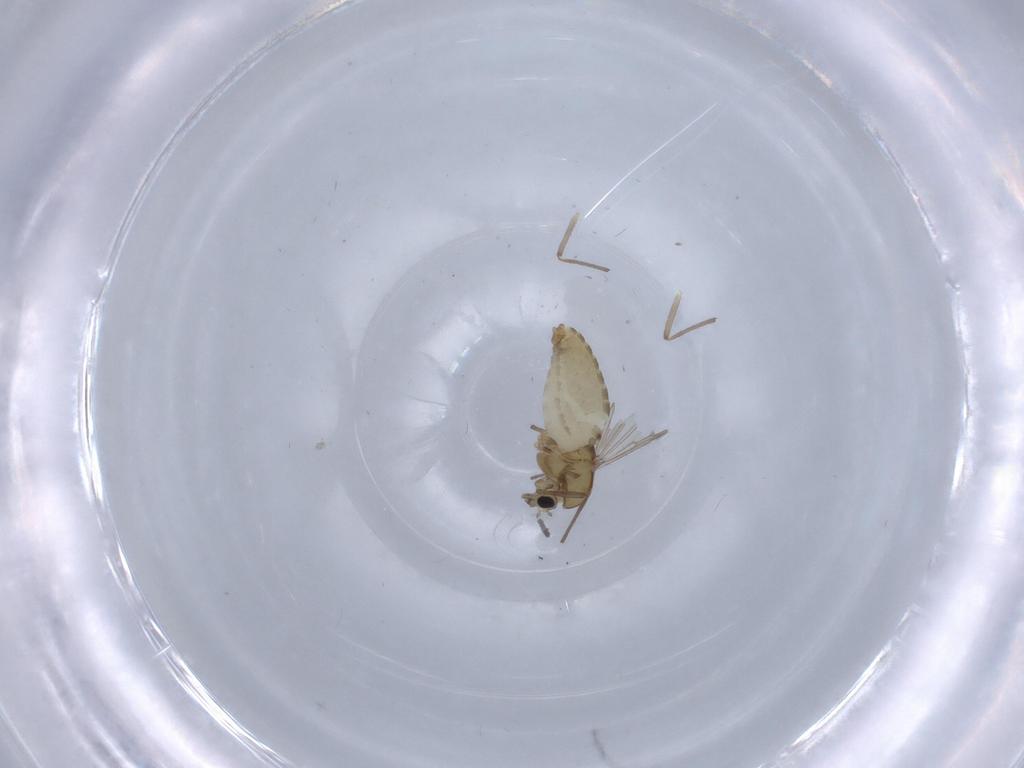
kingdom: Animalia
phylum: Arthropoda
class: Insecta
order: Diptera
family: Chironomidae
